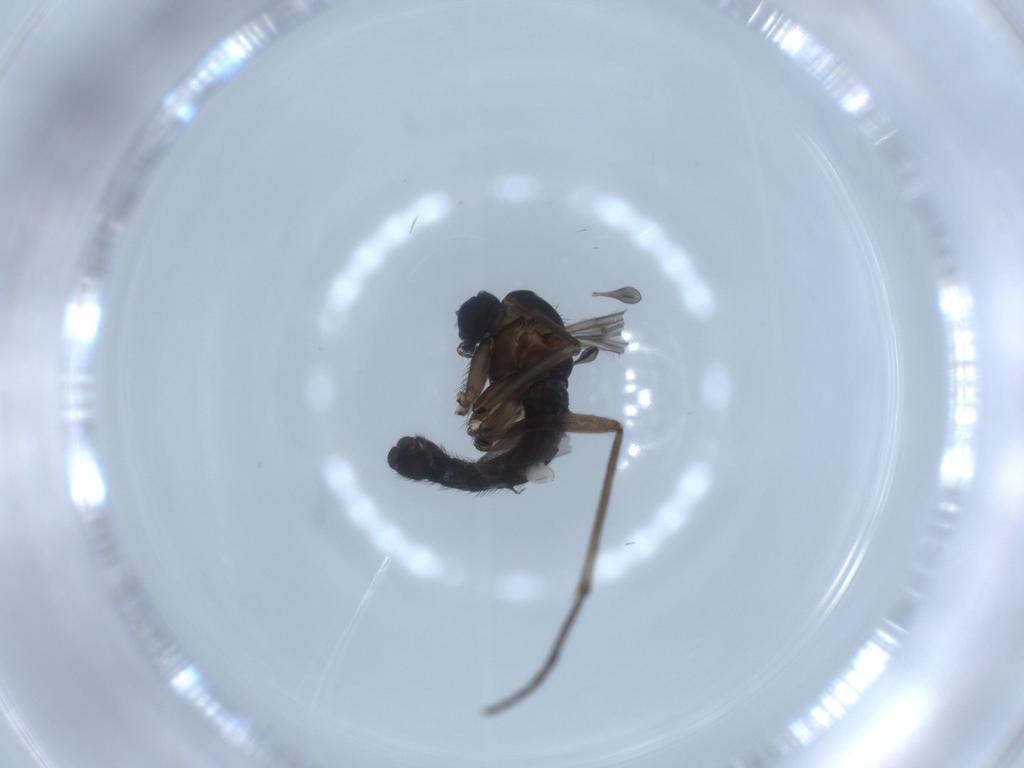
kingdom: Animalia
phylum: Arthropoda
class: Insecta
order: Diptera
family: Sciaridae
